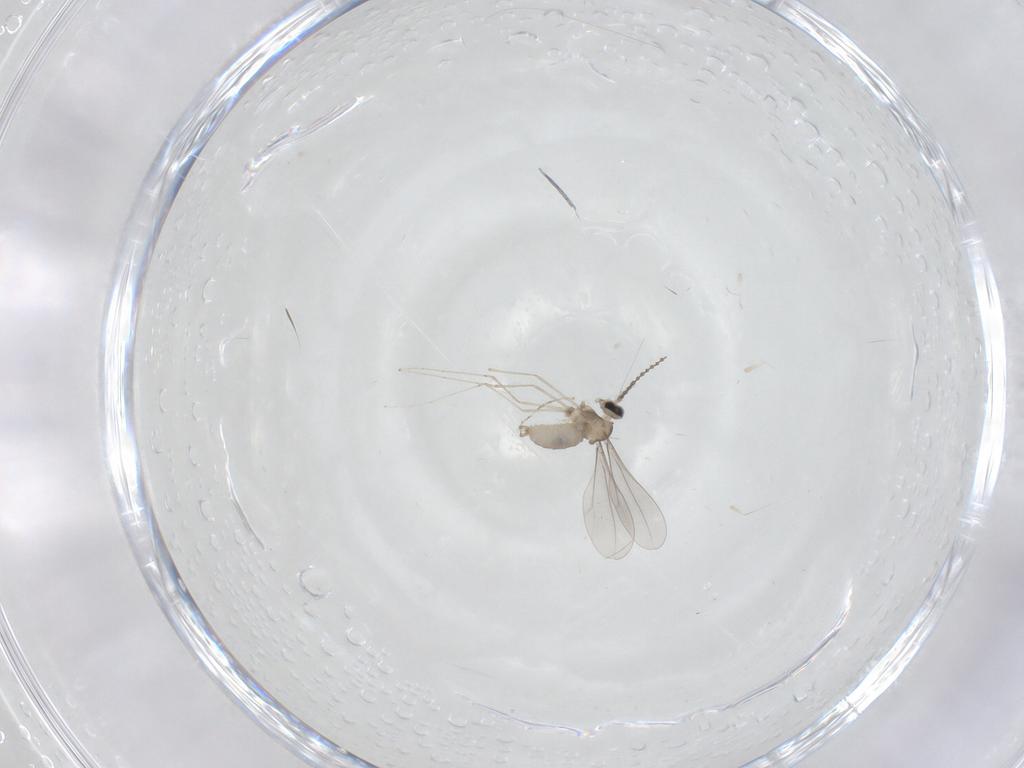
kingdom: Animalia
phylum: Arthropoda
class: Insecta
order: Diptera
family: Cecidomyiidae
